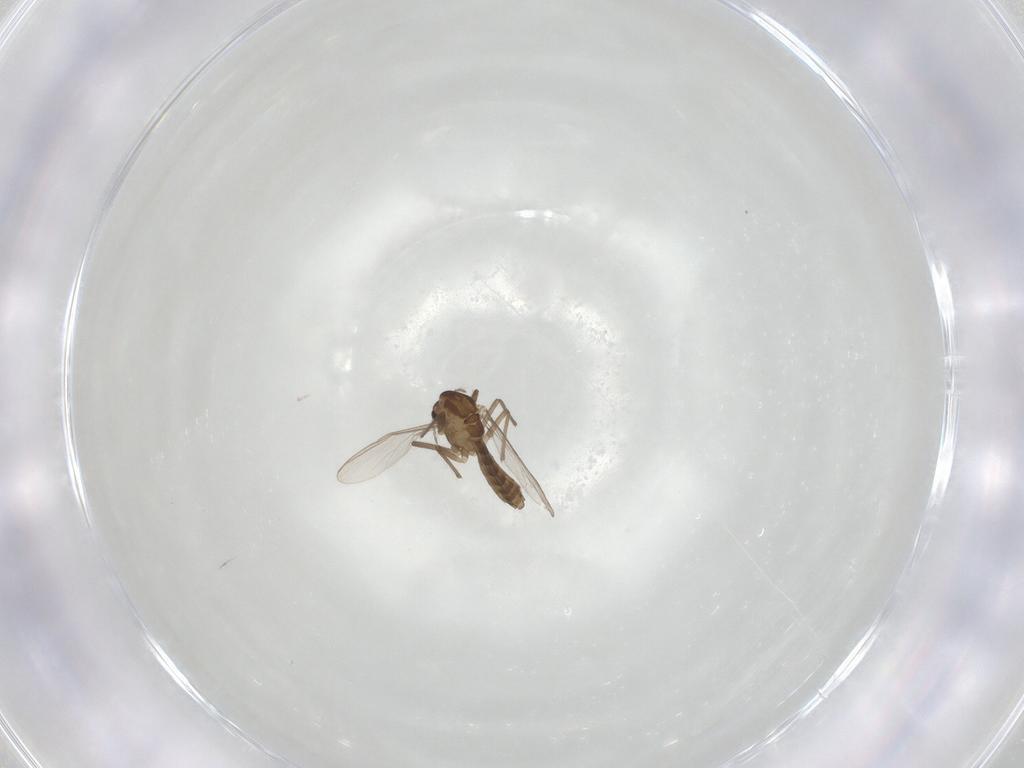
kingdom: Animalia
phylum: Arthropoda
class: Insecta
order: Diptera
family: Chironomidae
